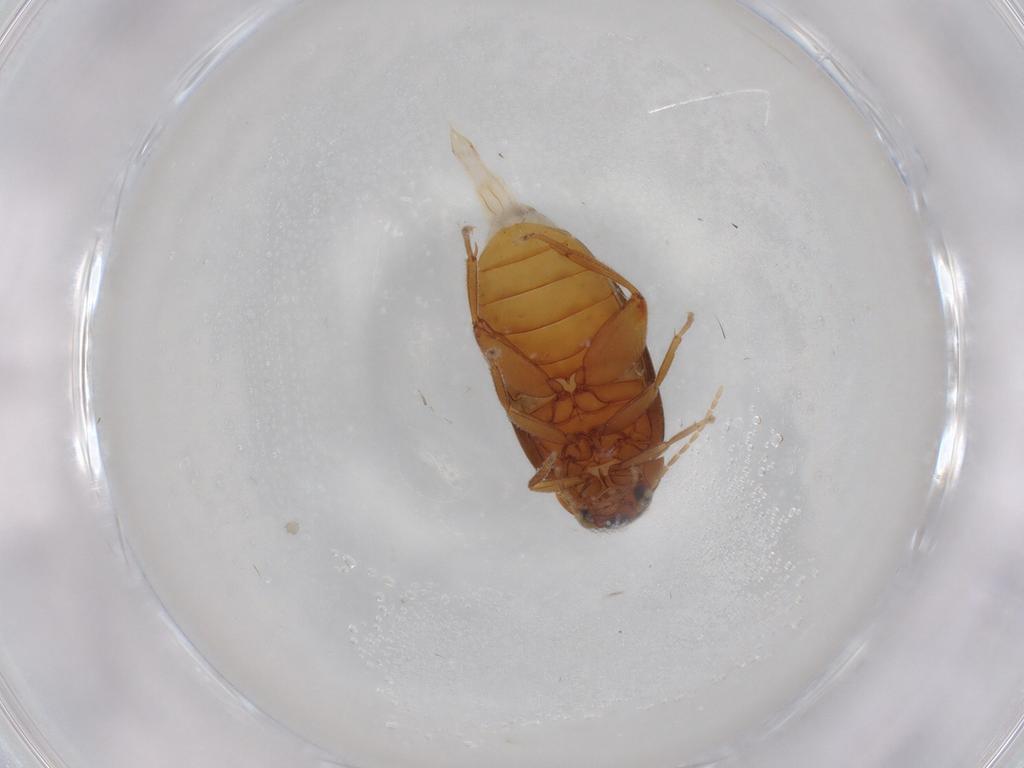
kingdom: Animalia
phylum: Arthropoda
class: Insecta
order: Coleoptera
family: Scirtidae
